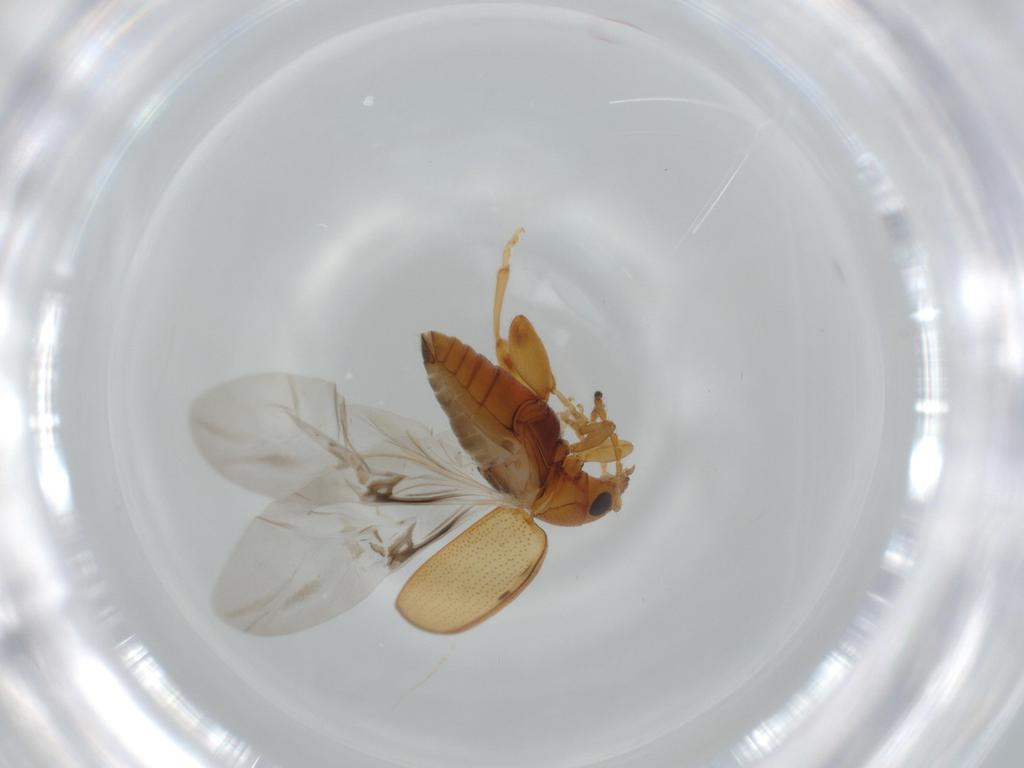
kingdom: Animalia
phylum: Arthropoda
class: Insecta
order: Coleoptera
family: Chrysomelidae
